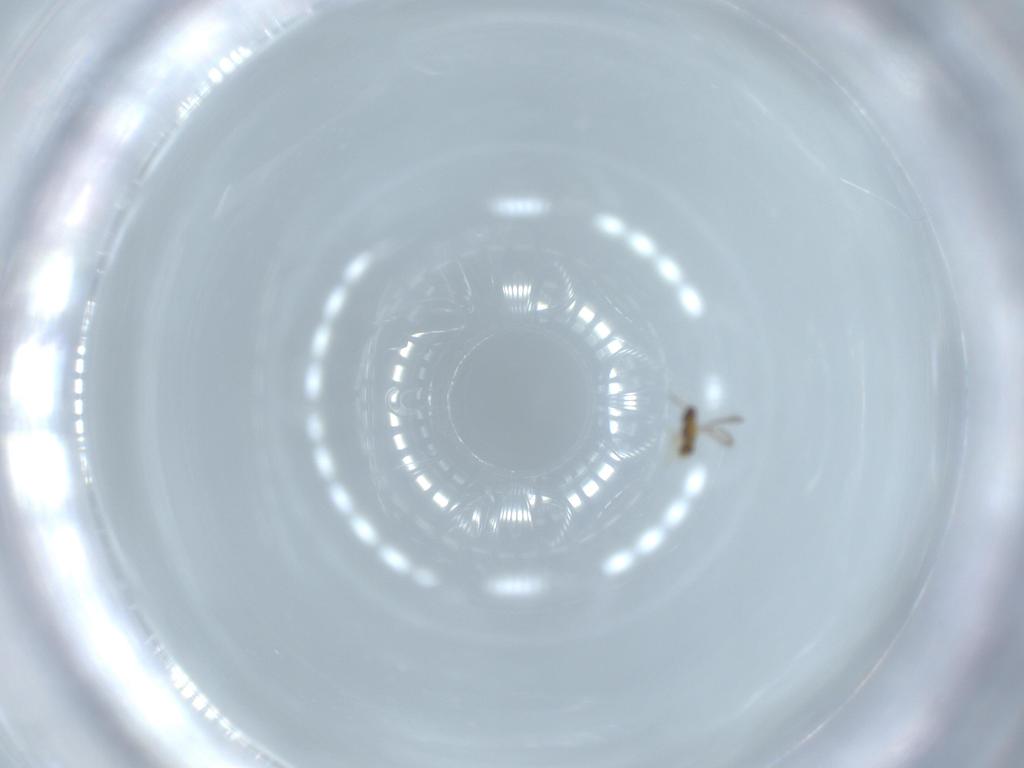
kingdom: Animalia
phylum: Arthropoda
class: Insecta
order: Hymenoptera
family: Aphelinidae
